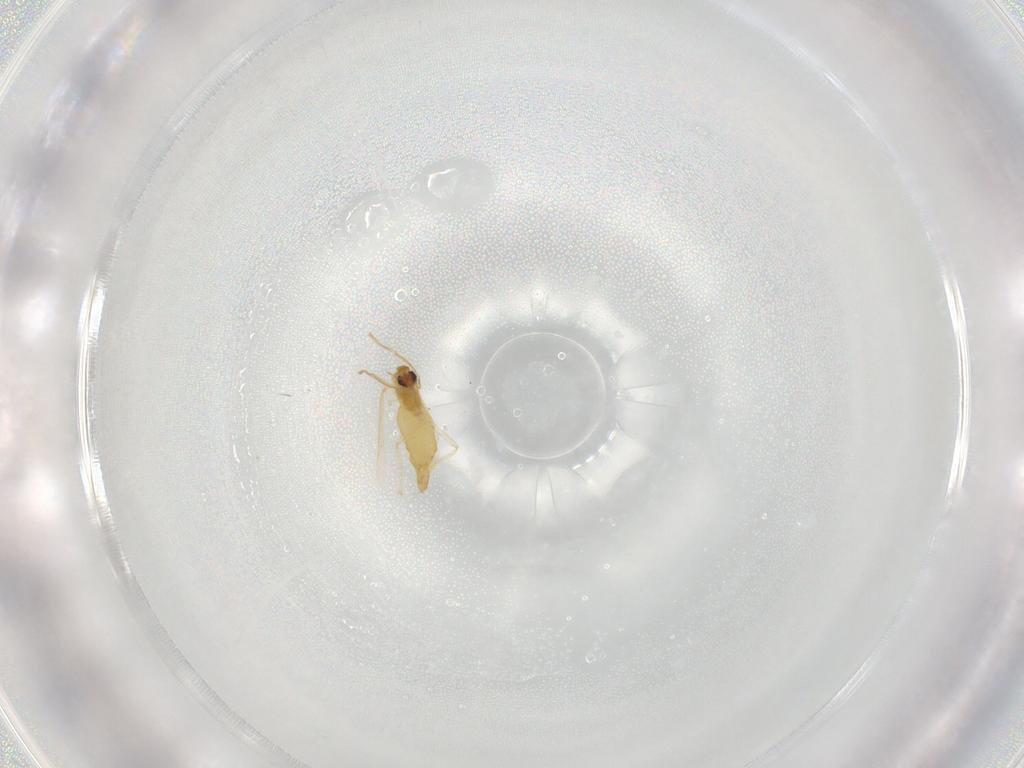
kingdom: Animalia
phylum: Arthropoda
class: Insecta
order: Diptera
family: Chironomidae
